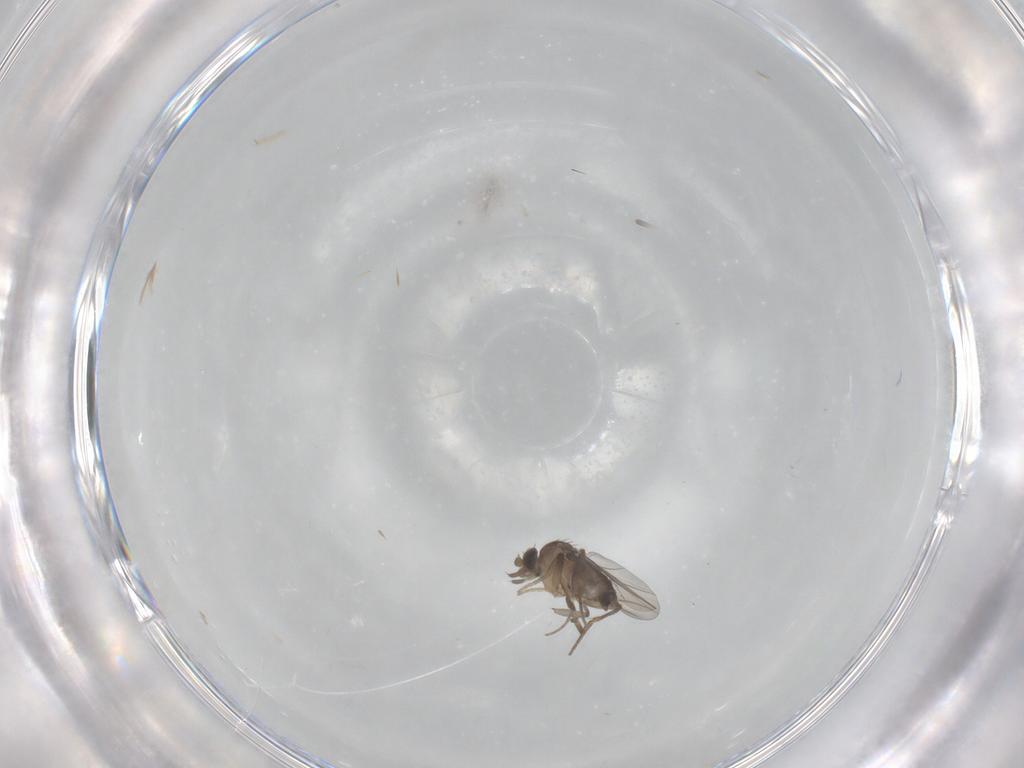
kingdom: Animalia
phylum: Arthropoda
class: Insecta
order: Diptera
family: Sciaridae
